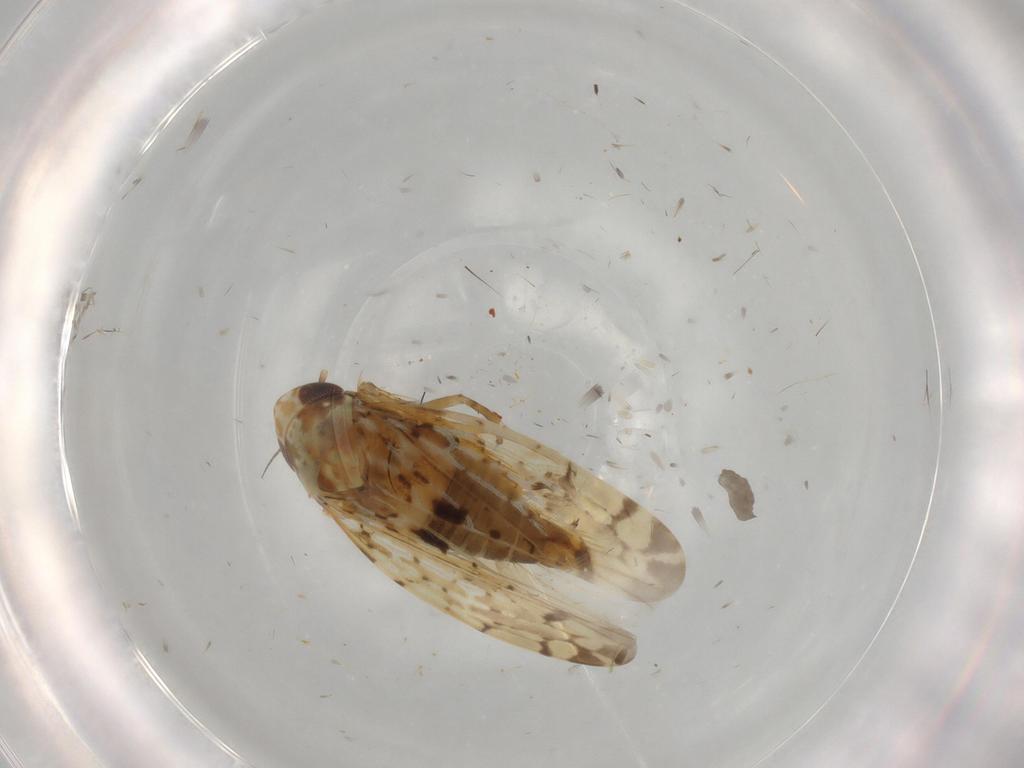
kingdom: Animalia
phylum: Arthropoda
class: Insecta
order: Hemiptera
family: Cicadellidae
